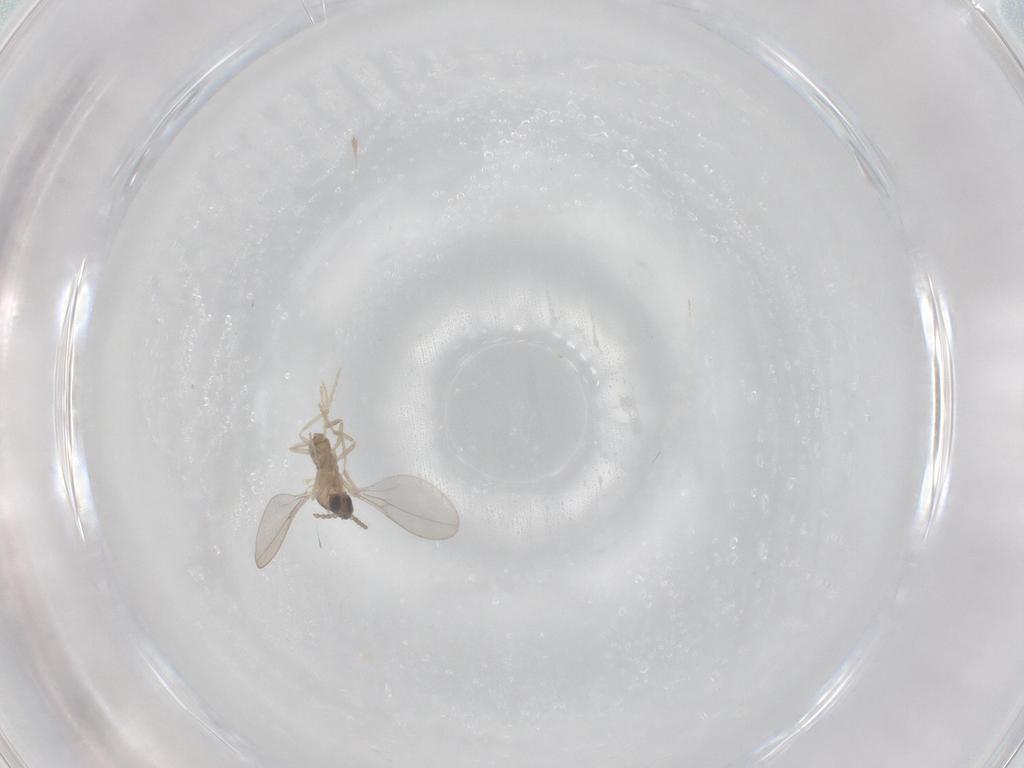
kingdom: Animalia
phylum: Arthropoda
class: Insecta
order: Diptera
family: Cecidomyiidae
